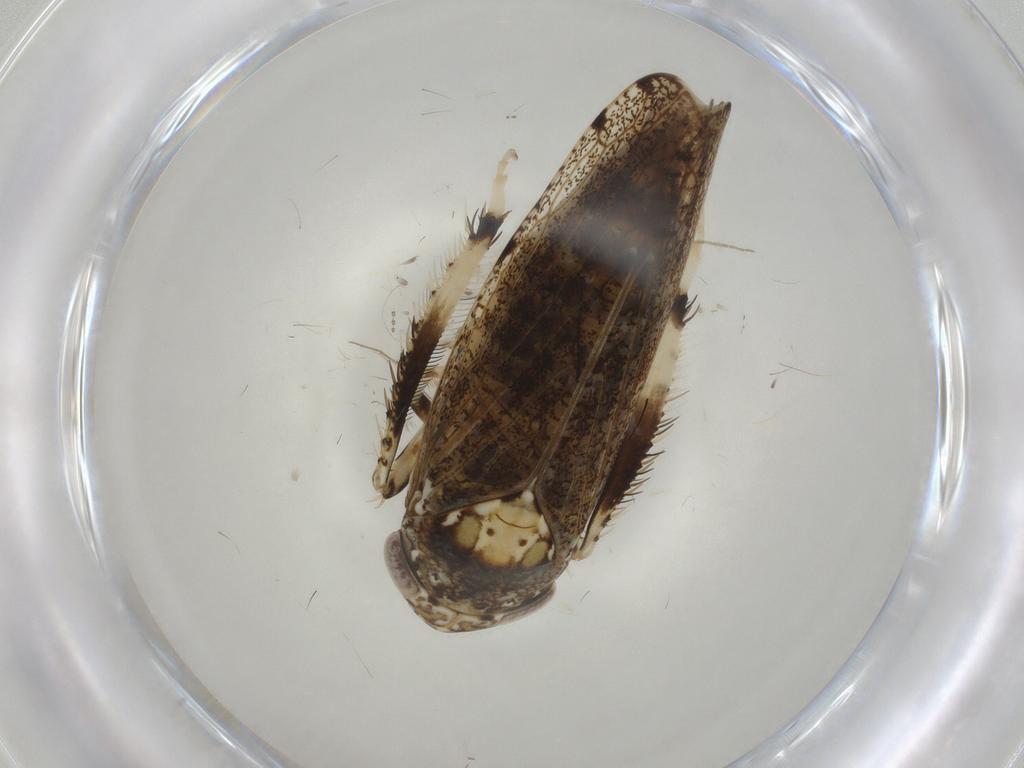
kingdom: Animalia
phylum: Arthropoda
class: Insecta
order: Hemiptera
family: Cicadellidae
